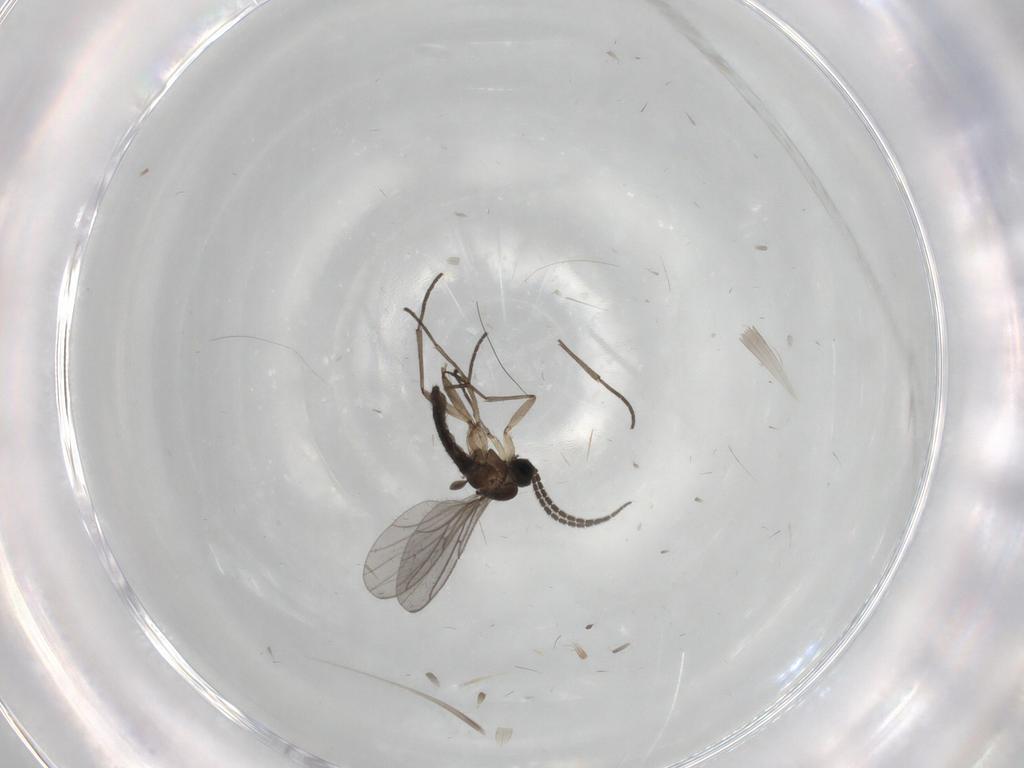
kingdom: Animalia
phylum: Arthropoda
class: Insecta
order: Diptera
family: Sciaridae
